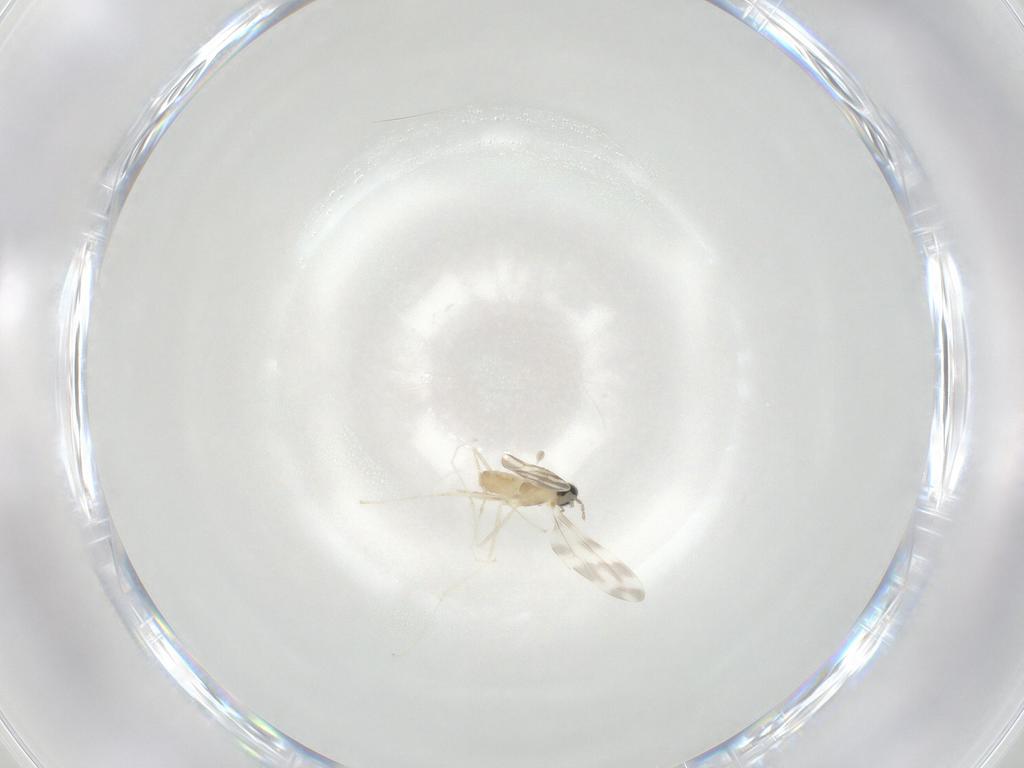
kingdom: Animalia
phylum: Arthropoda
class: Insecta
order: Diptera
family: Cecidomyiidae
